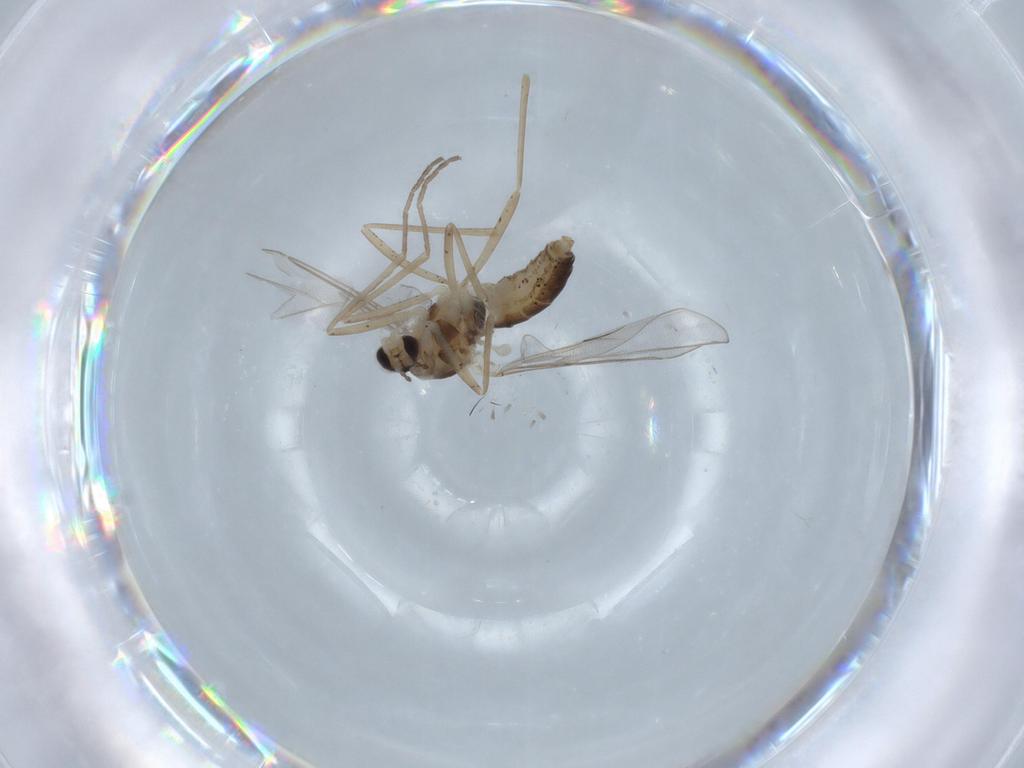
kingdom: Animalia
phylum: Arthropoda
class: Insecta
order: Diptera
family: Cecidomyiidae
